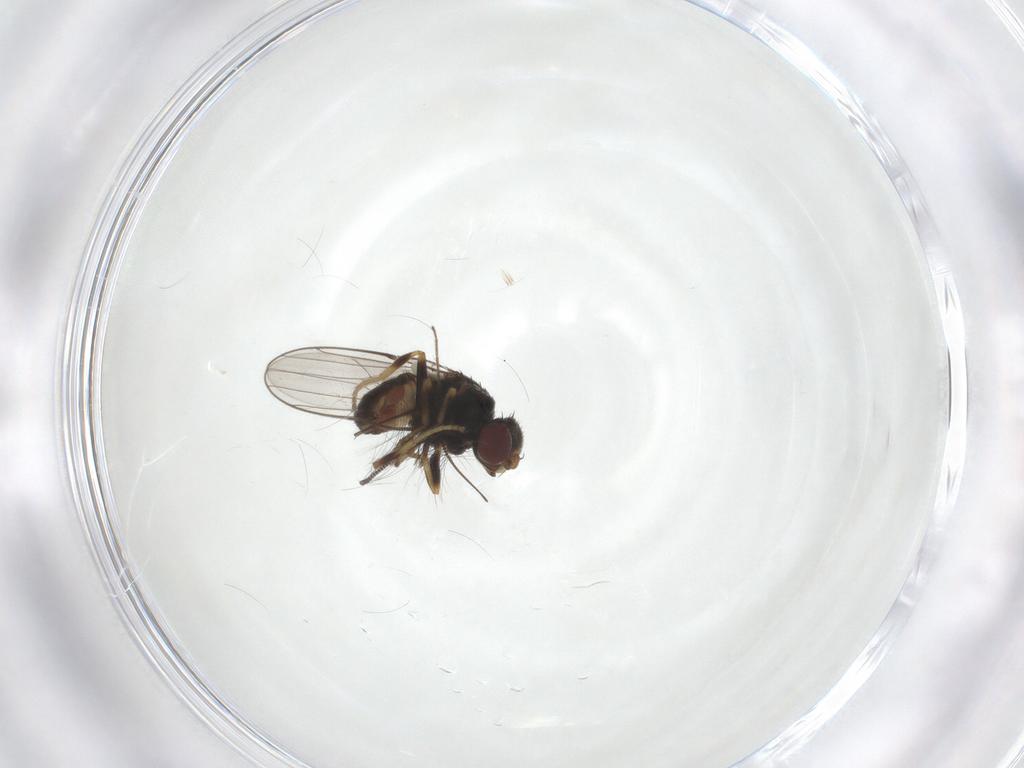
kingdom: Animalia
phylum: Arthropoda
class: Insecta
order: Diptera
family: Chloropidae
